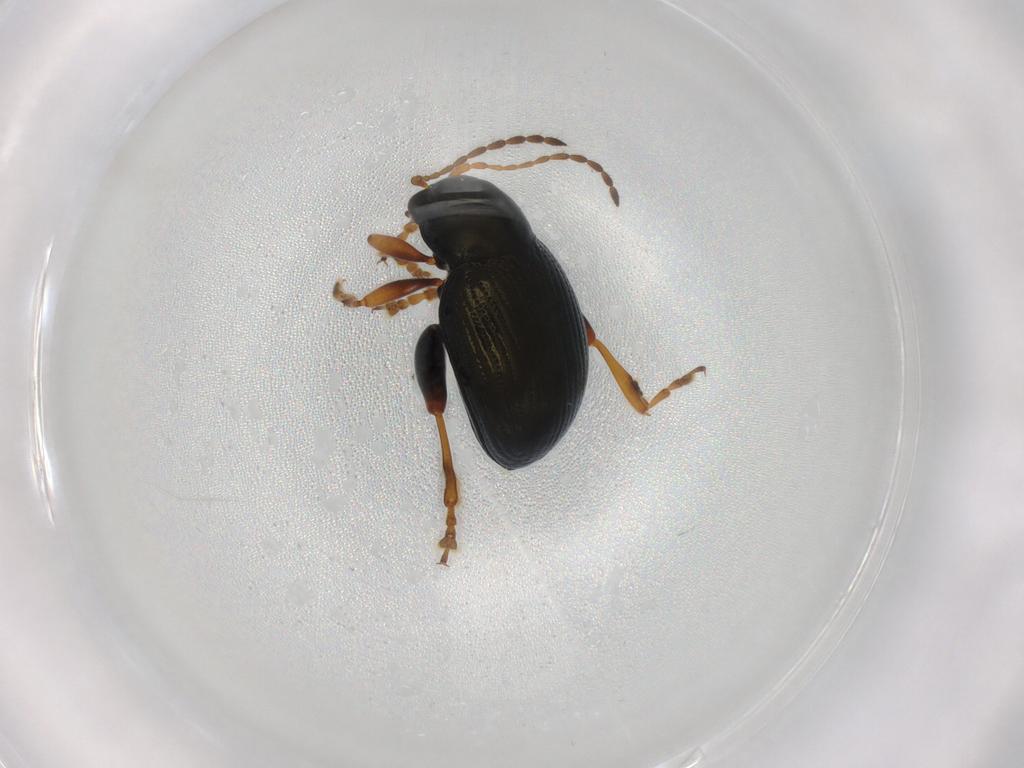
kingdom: Animalia
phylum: Arthropoda
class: Insecta
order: Coleoptera
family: Chrysomelidae
